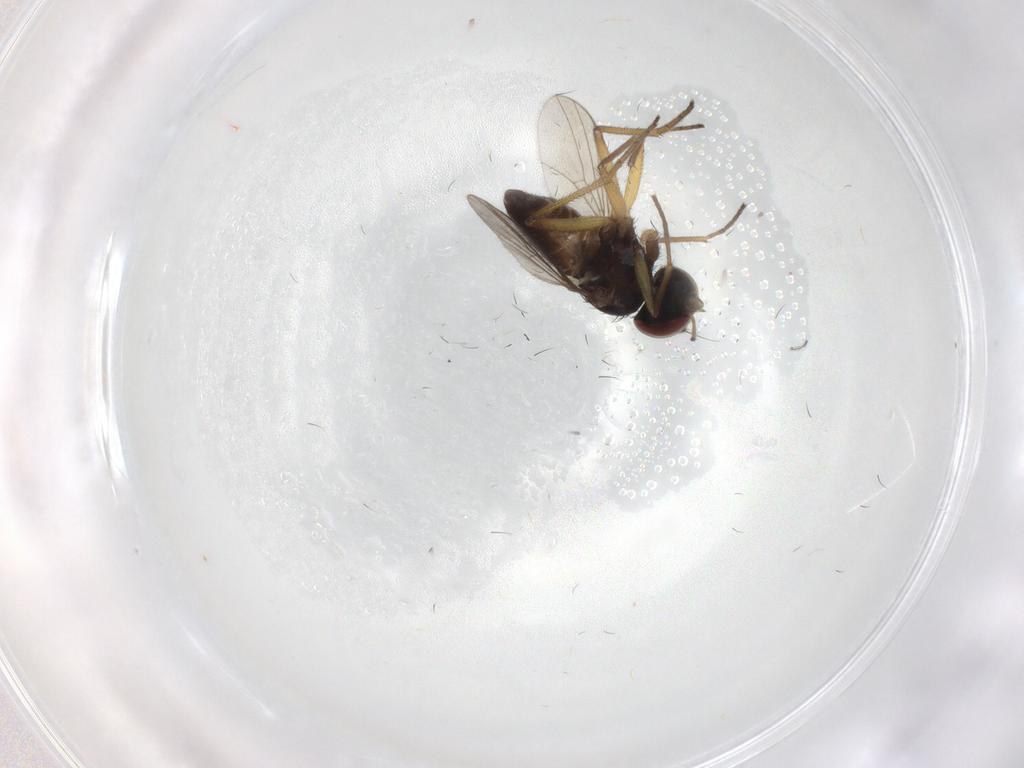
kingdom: Animalia
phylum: Arthropoda
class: Insecta
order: Diptera
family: Dolichopodidae
